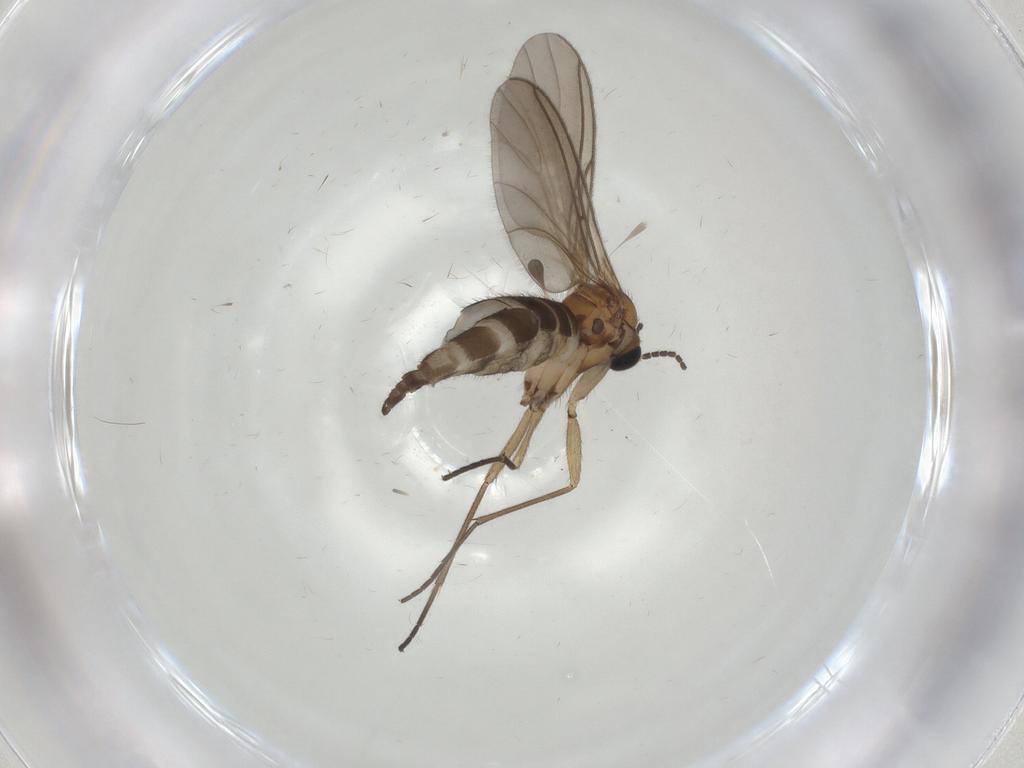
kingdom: Animalia
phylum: Arthropoda
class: Insecta
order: Diptera
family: Sciaridae
